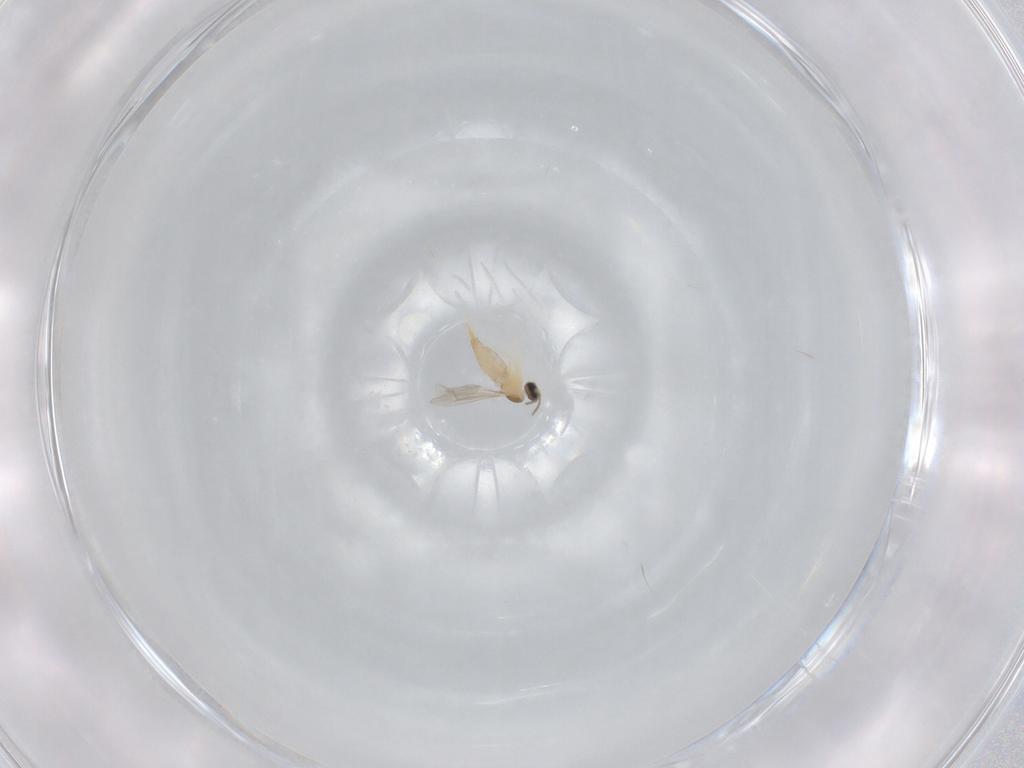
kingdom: Animalia
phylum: Arthropoda
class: Insecta
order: Diptera
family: Cecidomyiidae
